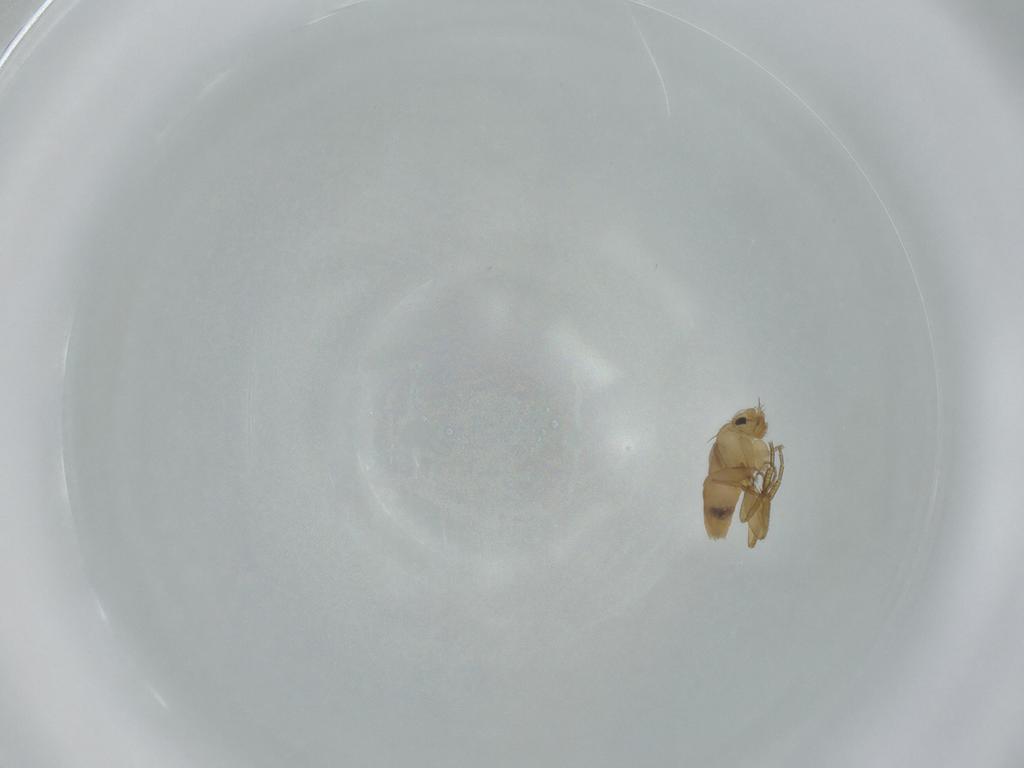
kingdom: Animalia
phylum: Arthropoda
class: Insecta
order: Diptera
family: Phoridae
